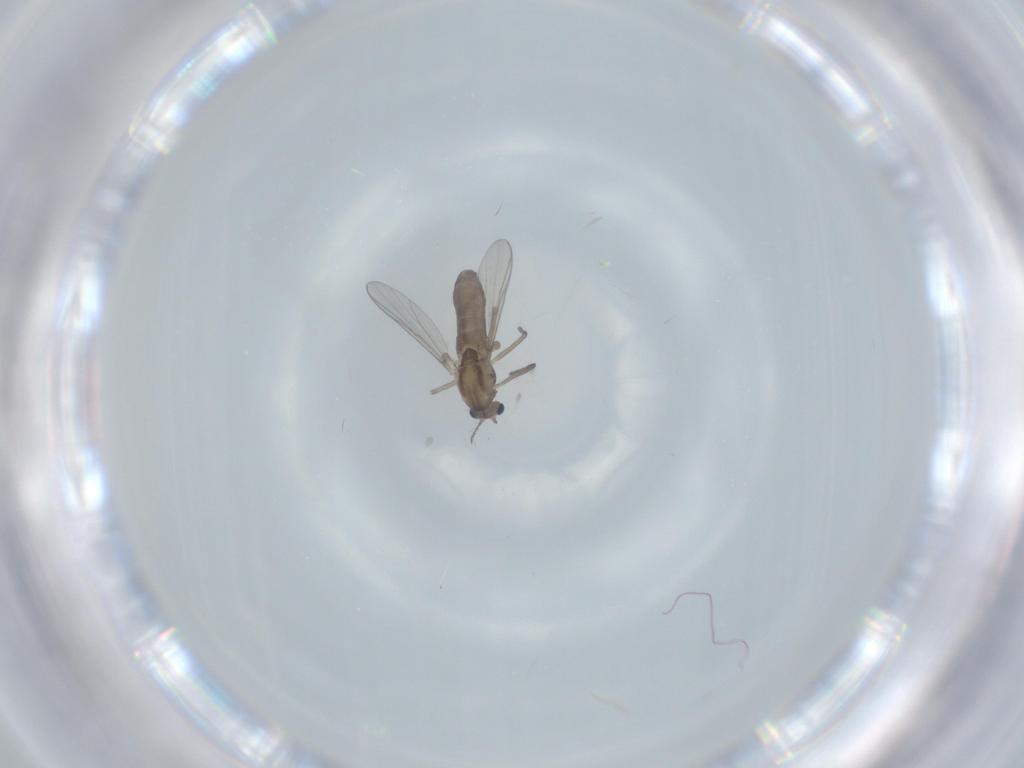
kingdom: Animalia
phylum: Arthropoda
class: Insecta
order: Diptera
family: Chironomidae
